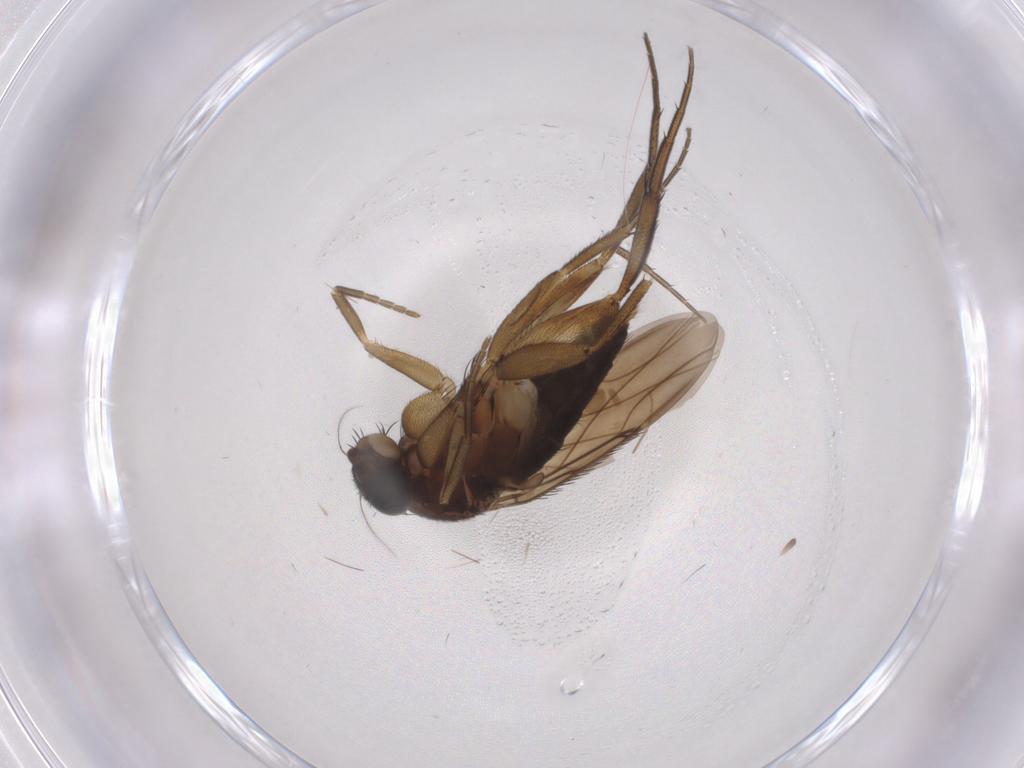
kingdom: Animalia
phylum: Arthropoda
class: Insecta
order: Diptera
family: Phoridae
